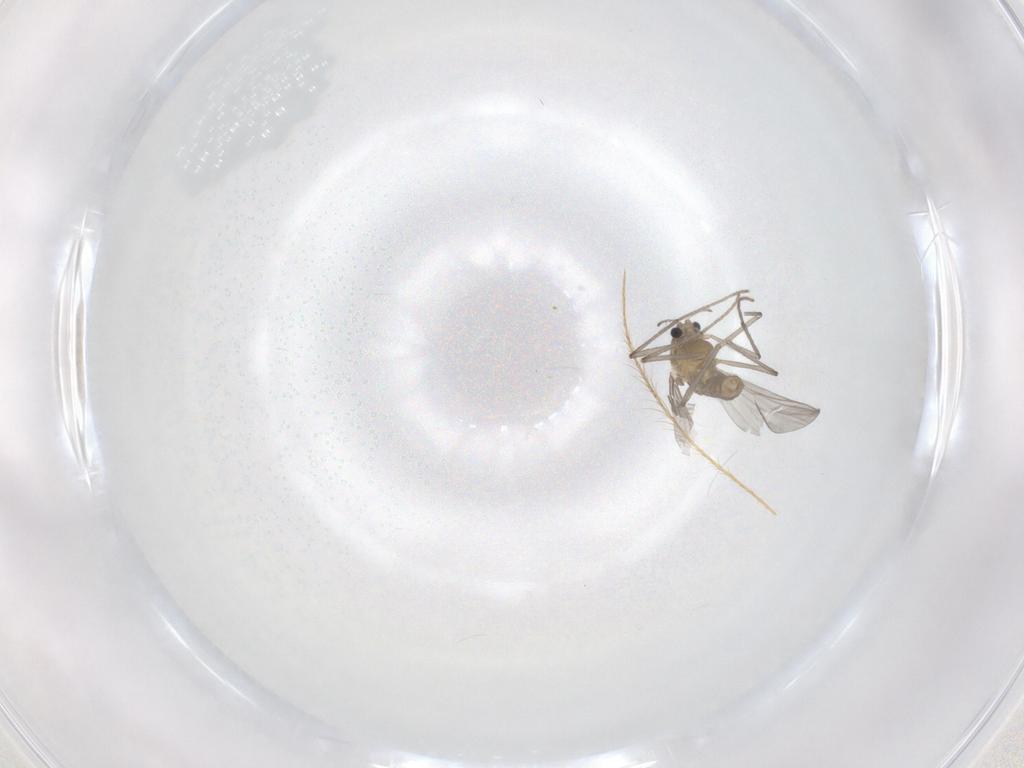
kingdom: Animalia
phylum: Arthropoda
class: Insecta
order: Diptera
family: Chironomidae
